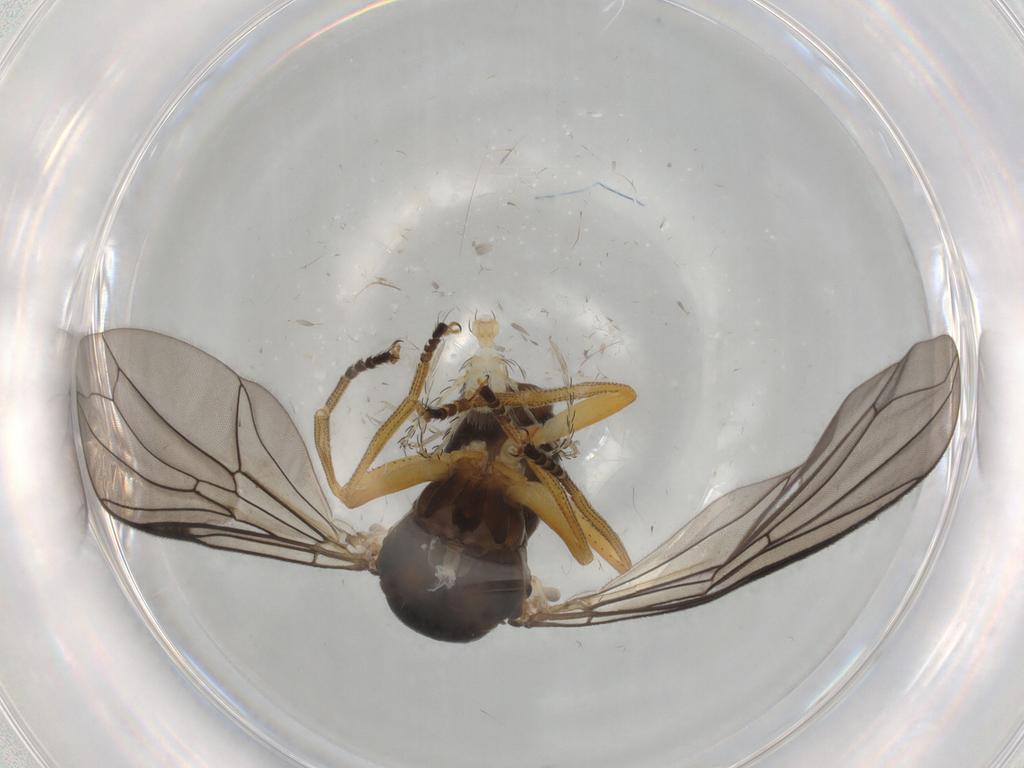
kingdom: Animalia
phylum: Arthropoda
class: Insecta
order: Diptera
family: Pipunculidae
